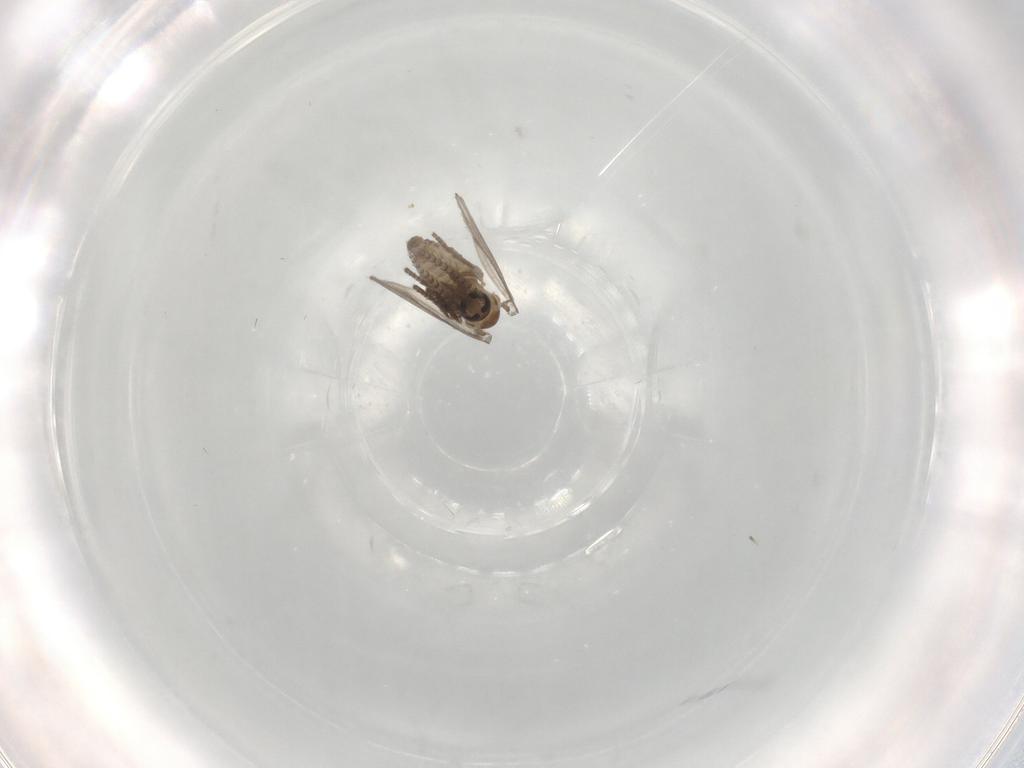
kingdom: Animalia
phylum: Arthropoda
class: Insecta
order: Diptera
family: Psychodidae
